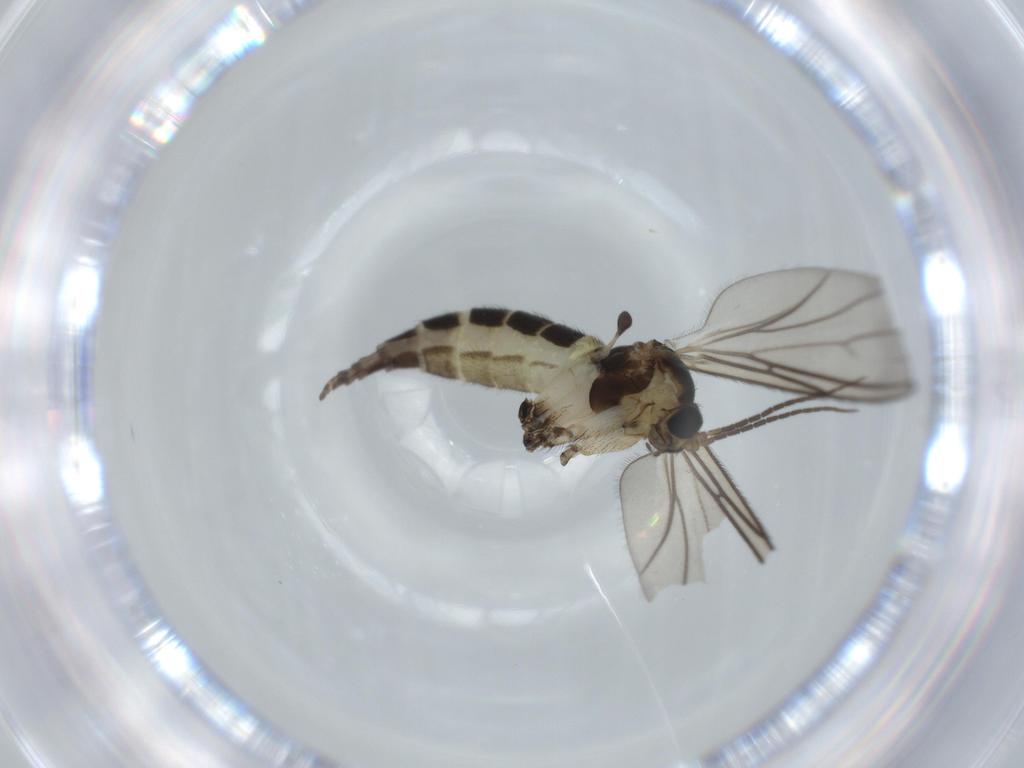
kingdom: Animalia
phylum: Arthropoda
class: Insecta
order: Diptera
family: Sciaridae
